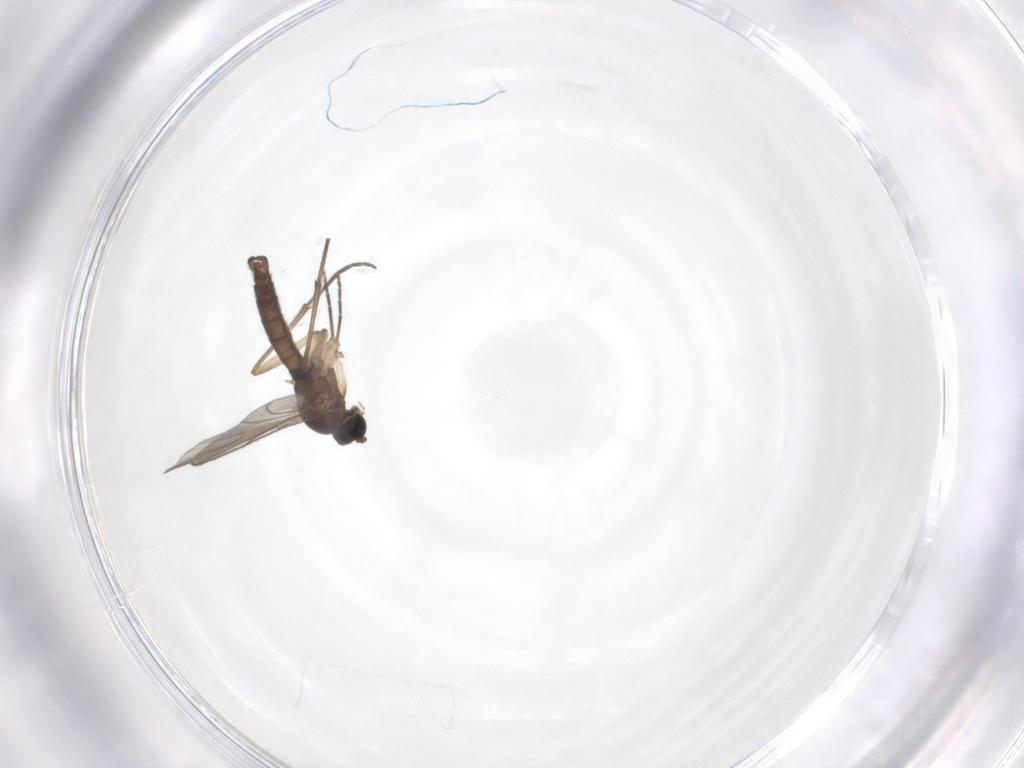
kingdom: Animalia
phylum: Arthropoda
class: Insecta
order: Diptera
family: Sciaridae
